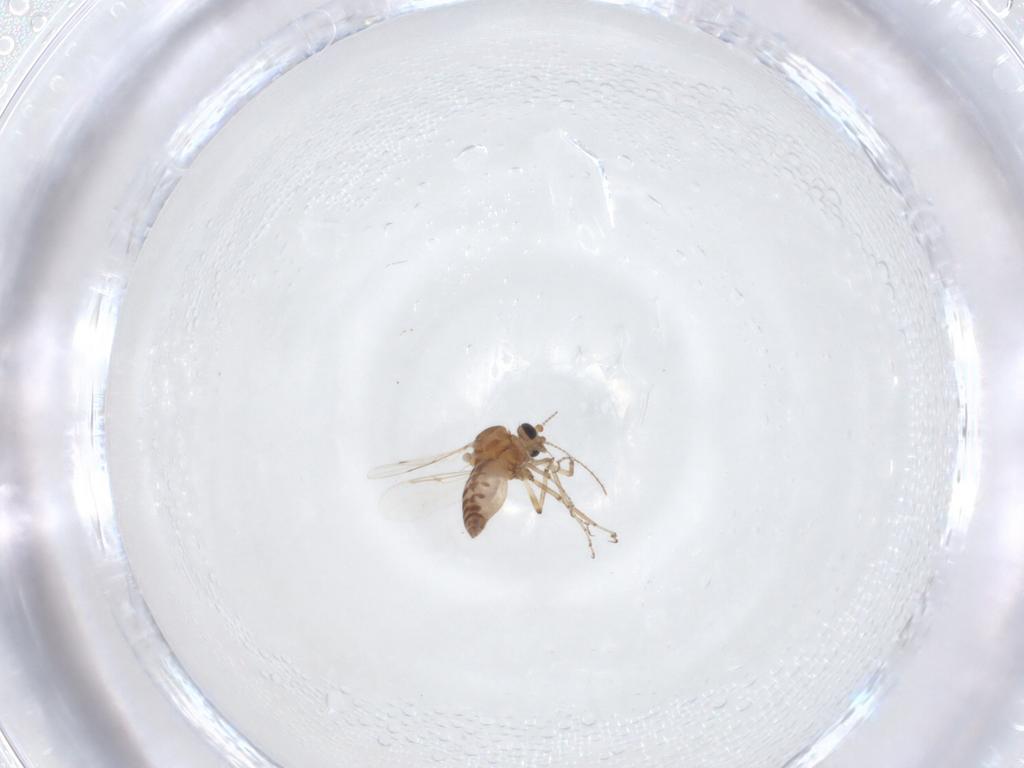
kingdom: Animalia
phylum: Arthropoda
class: Insecta
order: Diptera
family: Ceratopogonidae
